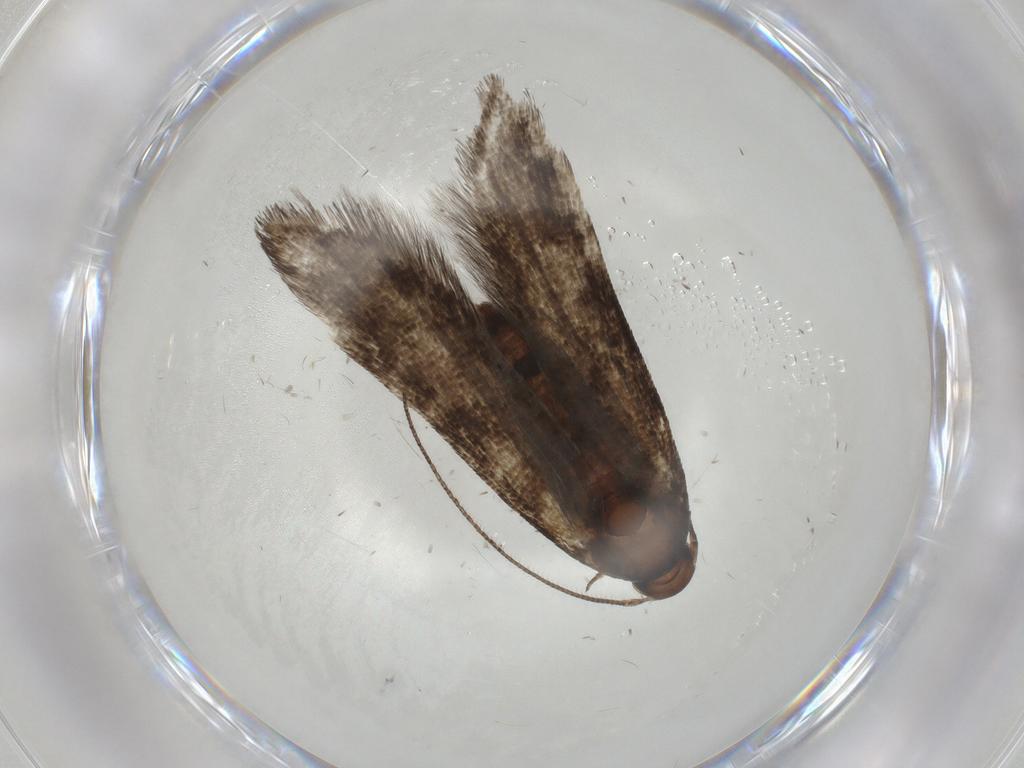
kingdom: Animalia
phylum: Arthropoda
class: Insecta
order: Lepidoptera
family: Noctuidae
